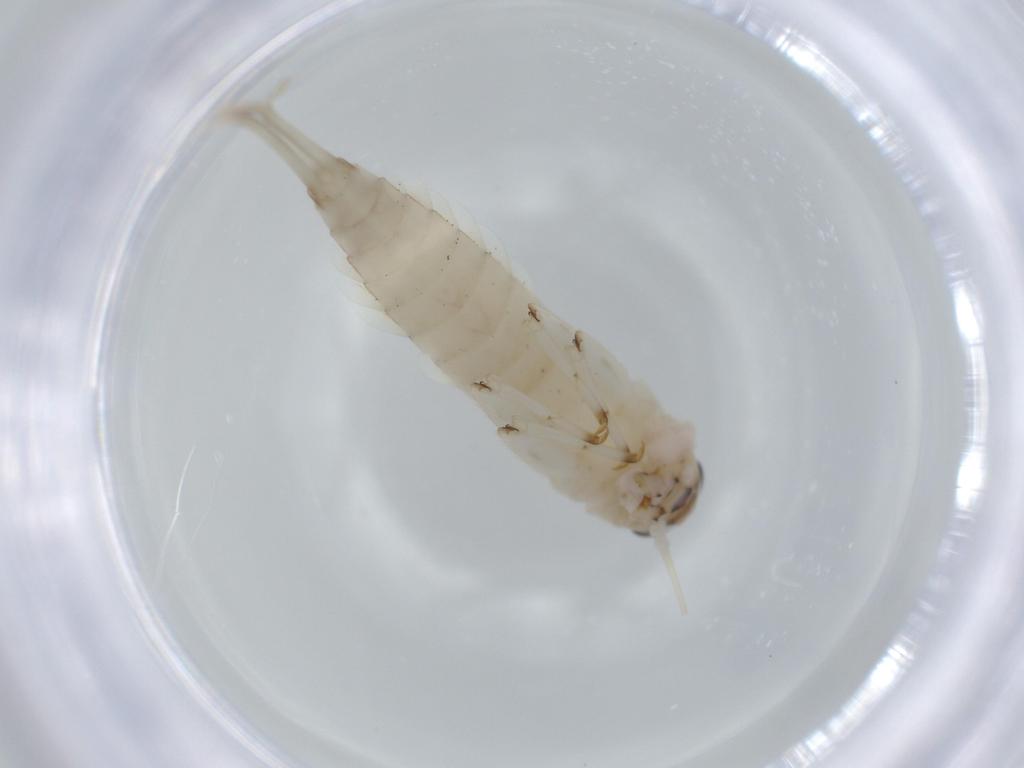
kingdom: Animalia
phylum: Arthropoda
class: Insecta
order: Ephemeroptera
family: Baetidae
